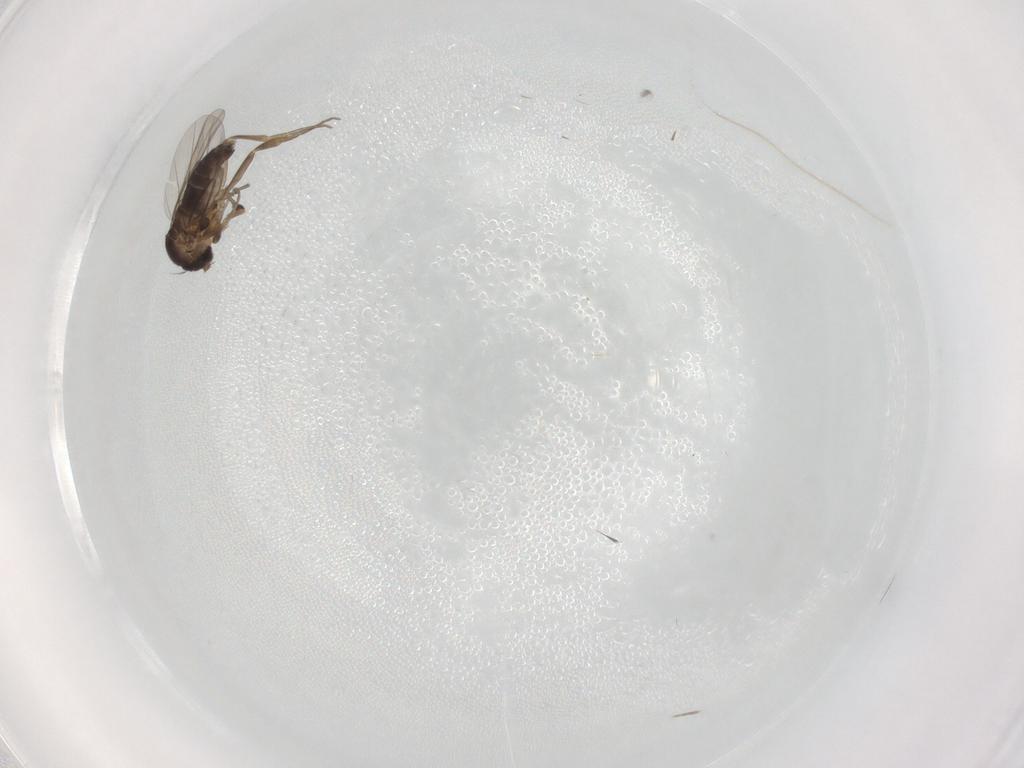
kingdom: Animalia
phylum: Arthropoda
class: Insecta
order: Diptera
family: Phoridae
